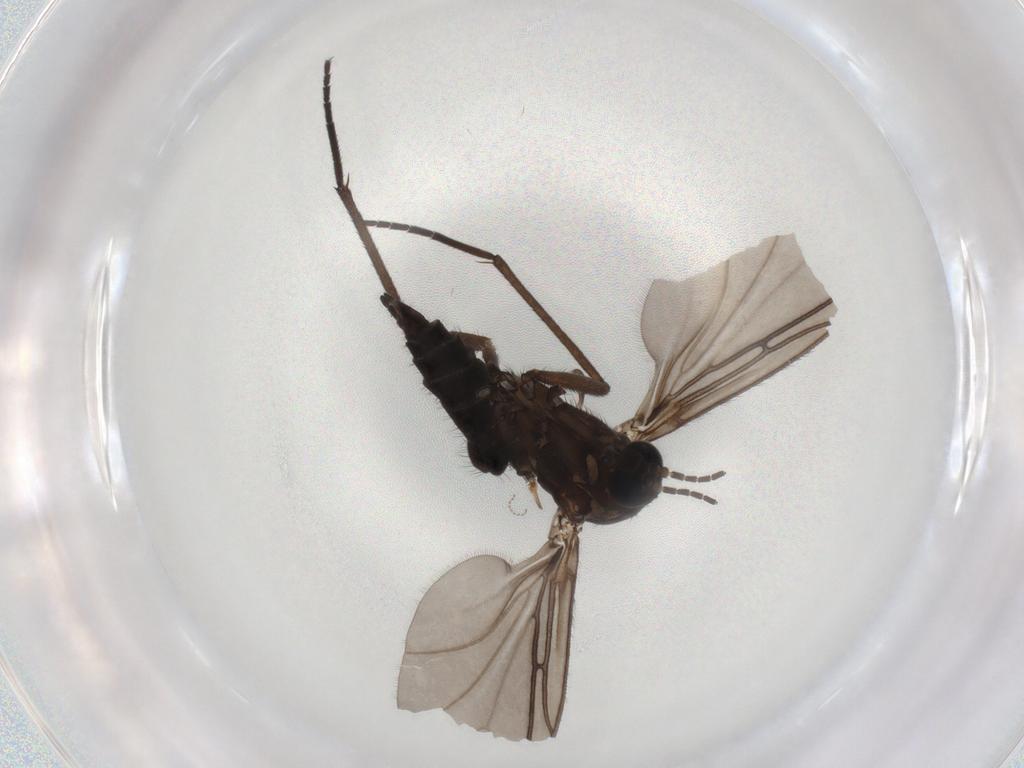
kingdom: Animalia
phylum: Arthropoda
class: Insecta
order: Diptera
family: Sciaridae
